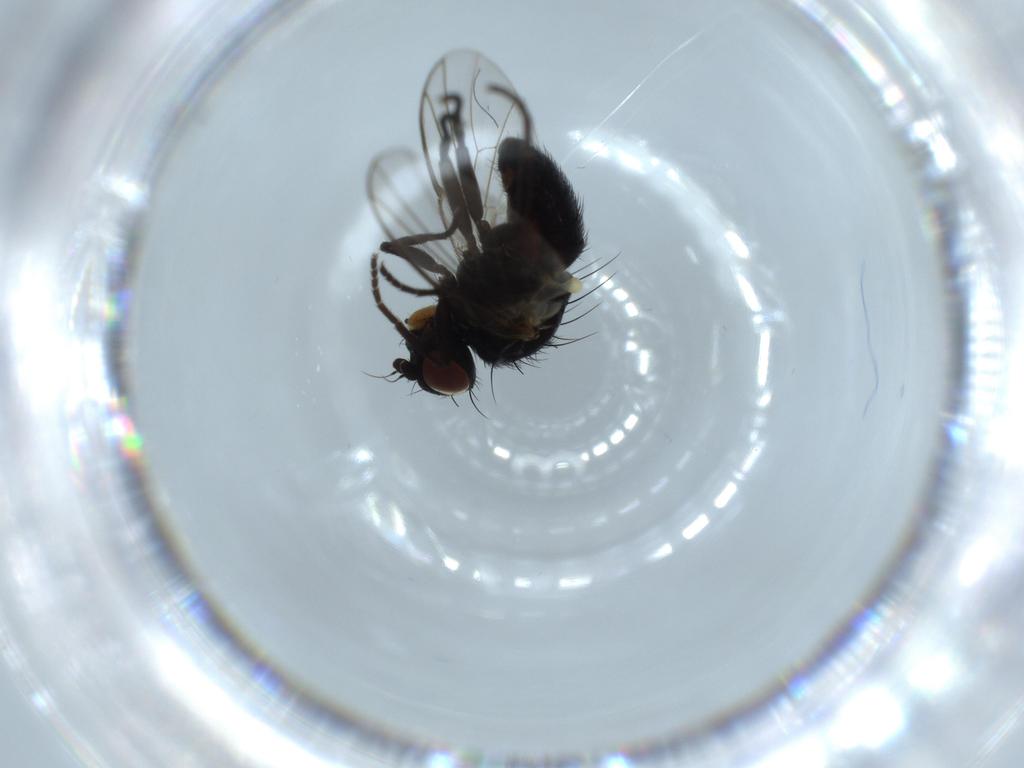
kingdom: Animalia
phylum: Arthropoda
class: Insecta
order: Diptera
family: Agromyzidae
